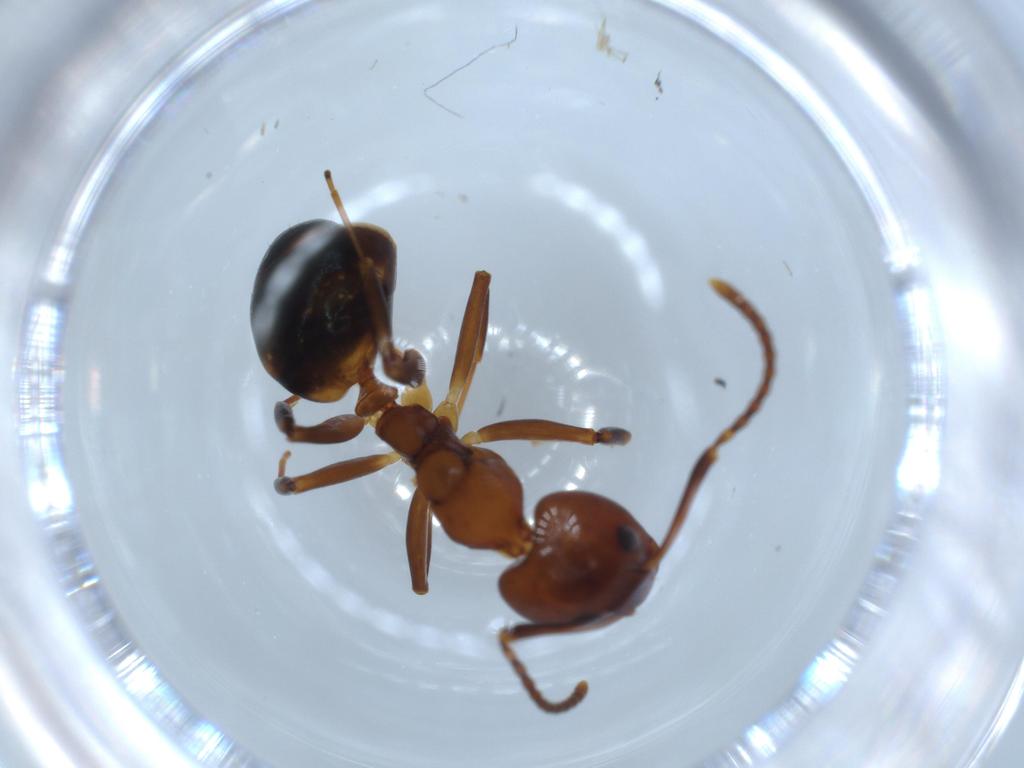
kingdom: Animalia
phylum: Arthropoda
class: Insecta
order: Hymenoptera
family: Formicidae
